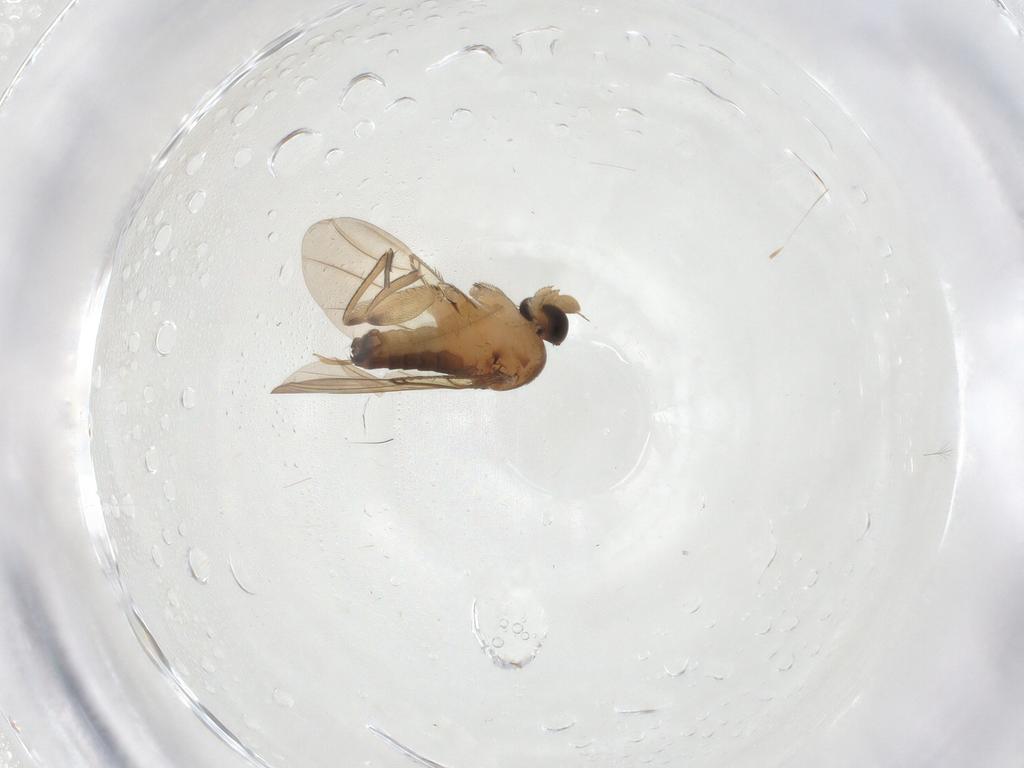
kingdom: Animalia
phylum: Arthropoda
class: Insecta
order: Diptera
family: Phoridae
